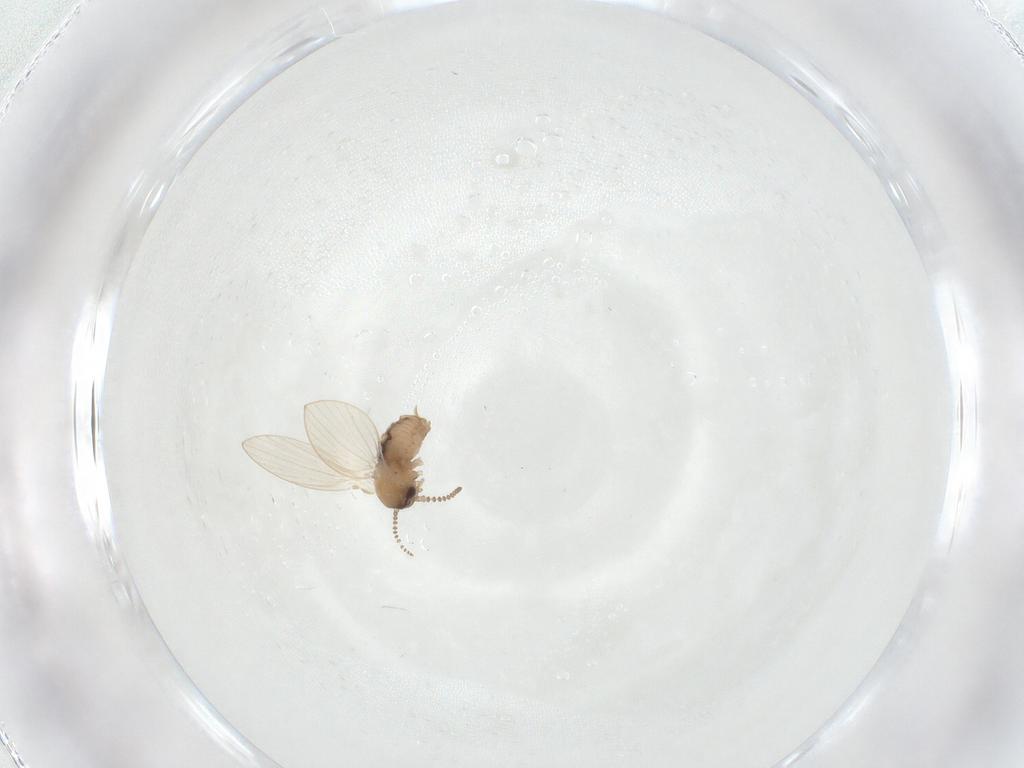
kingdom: Animalia
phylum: Arthropoda
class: Insecta
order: Diptera
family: Psychodidae
